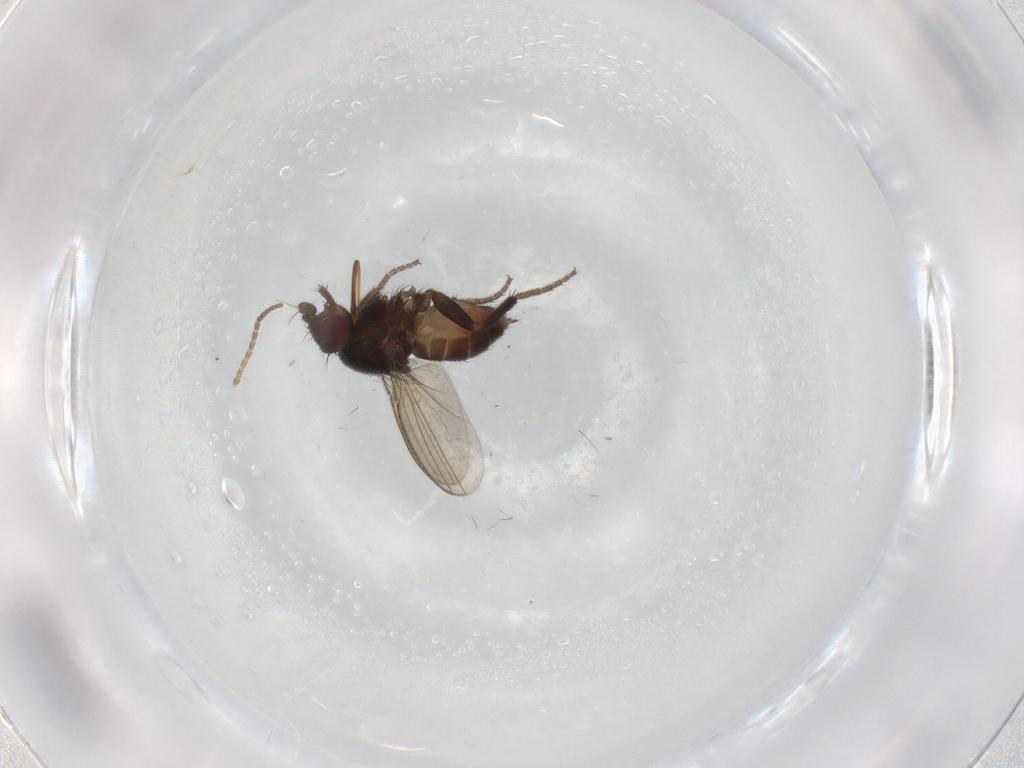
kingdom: Animalia
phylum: Arthropoda
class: Insecta
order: Diptera
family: Sciaridae
